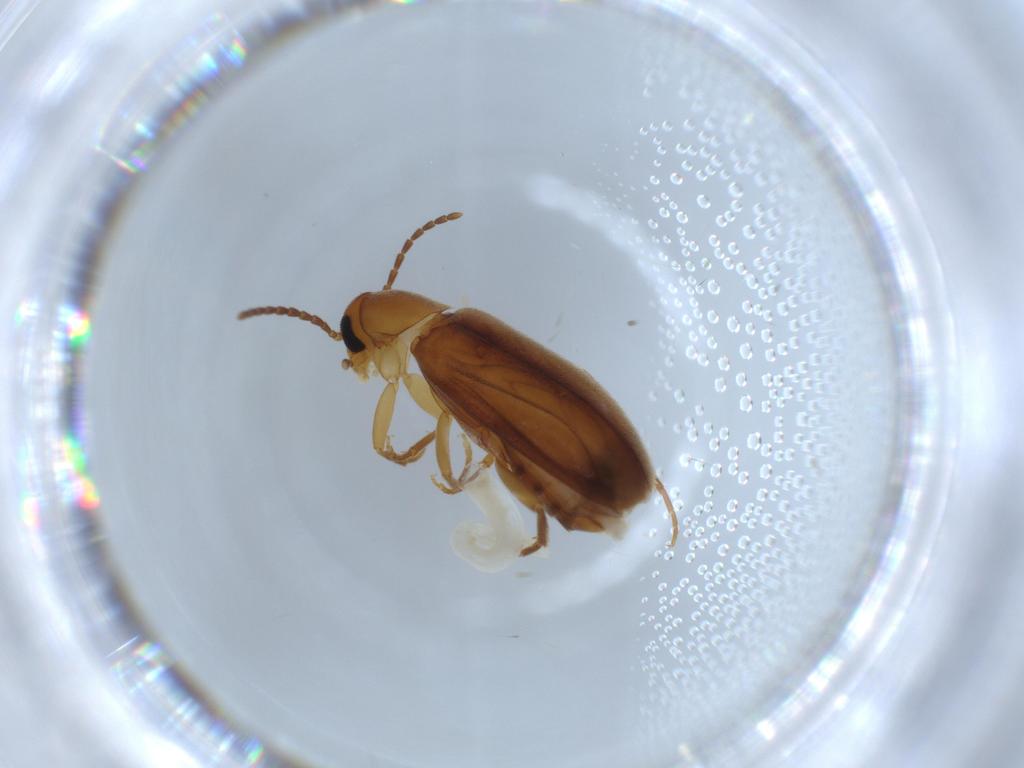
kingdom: Animalia
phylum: Arthropoda
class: Insecta
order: Coleoptera
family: Scraptiidae
